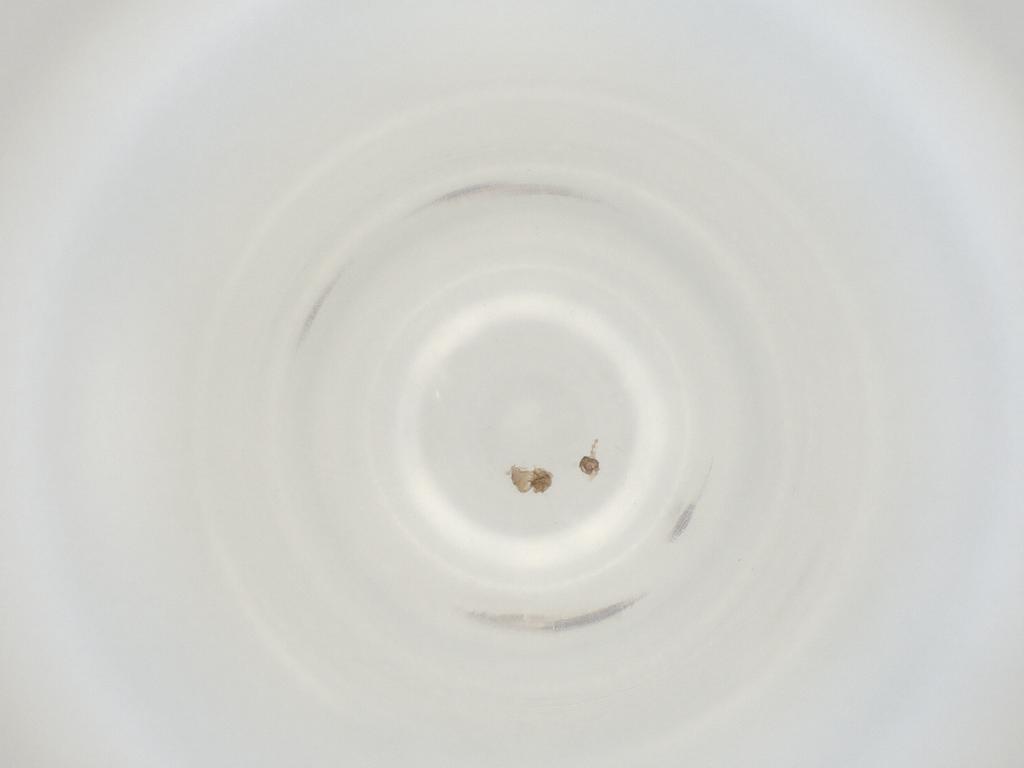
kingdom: Animalia
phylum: Arthropoda
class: Insecta
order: Diptera
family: Cecidomyiidae
